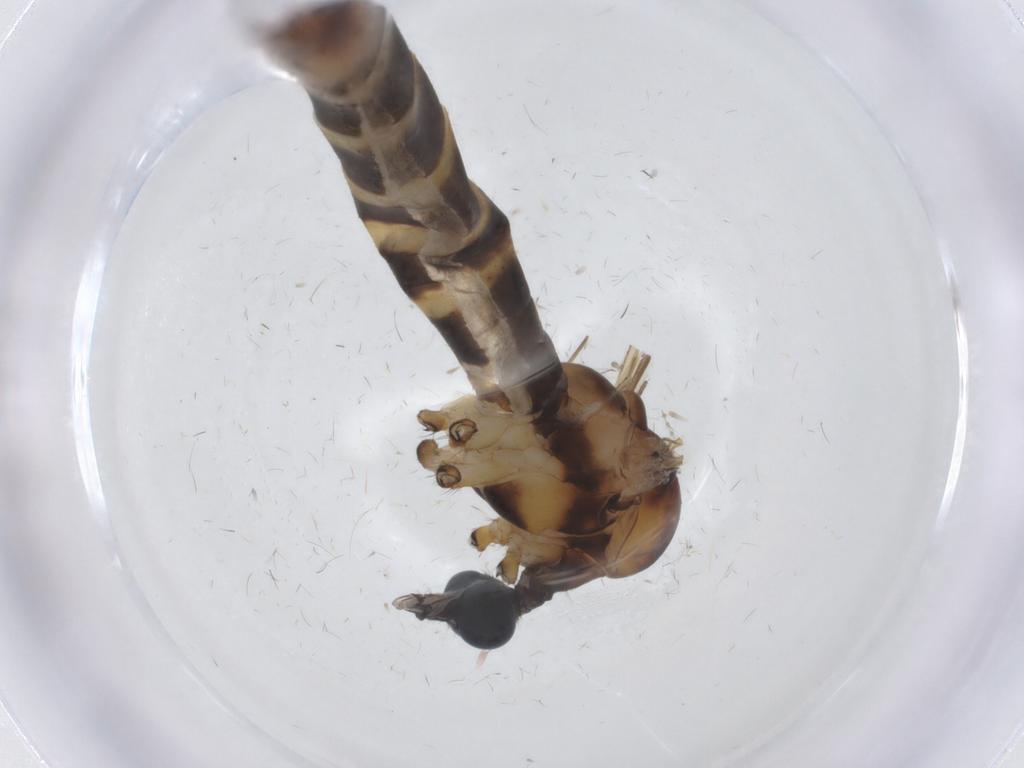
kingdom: Animalia
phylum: Arthropoda
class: Insecta
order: Diptera
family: Chironomidae
